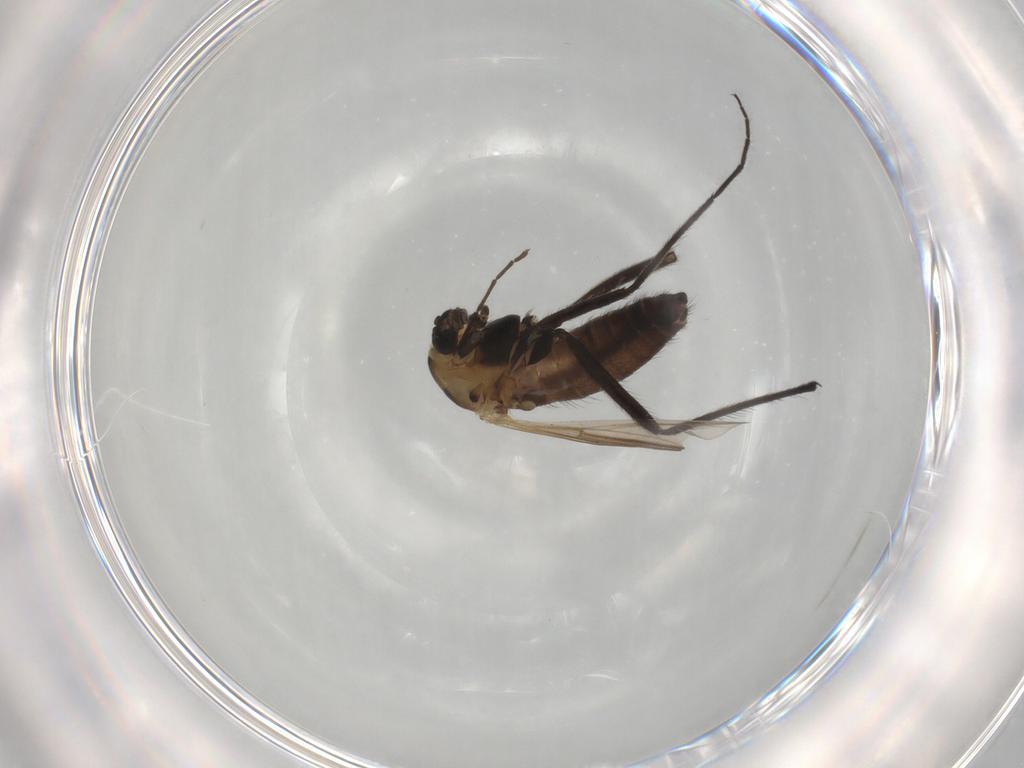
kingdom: Animalia
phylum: Arthropoda
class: Insecta
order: Diptera
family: Chironomidae
